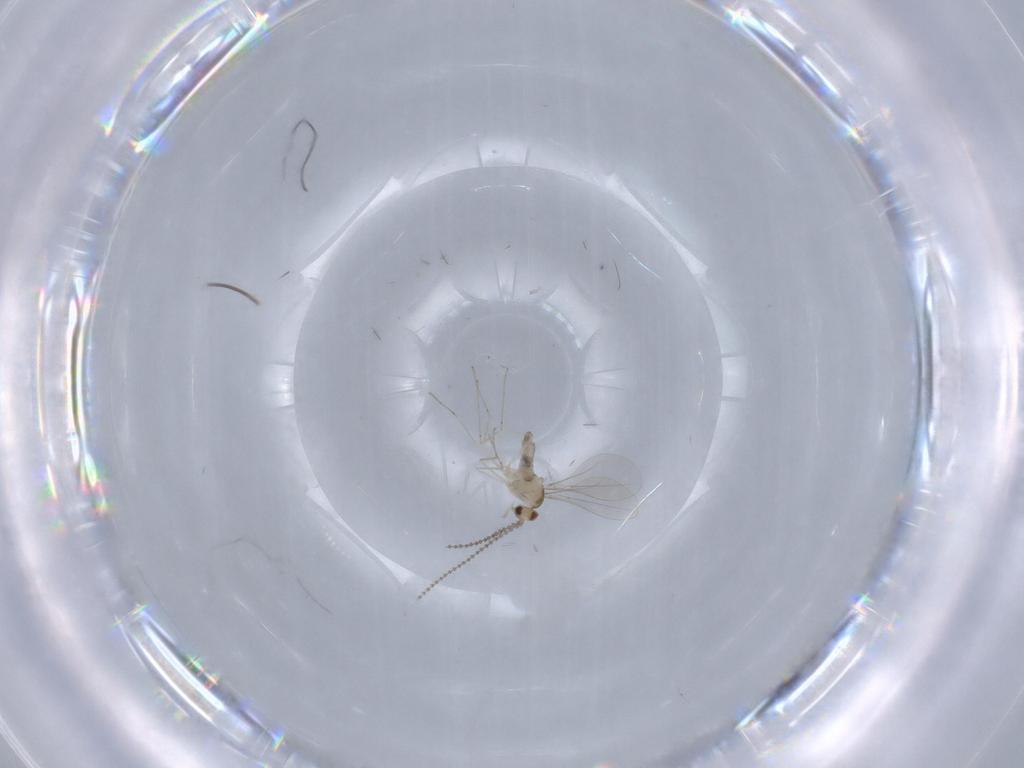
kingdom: Animalia
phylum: Arthropoda
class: Insecta
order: Diptera
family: Cecidomyiidae
